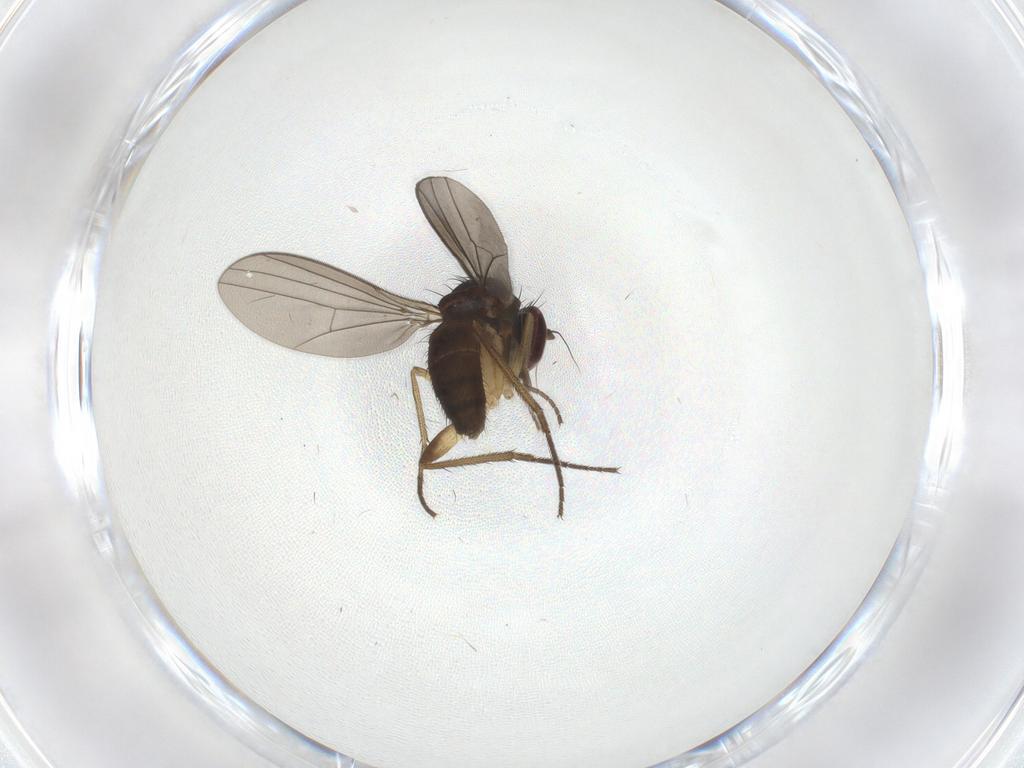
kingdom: Animalia
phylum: Arthropoda
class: Insecta
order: Diptera
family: Dolichopodidae
